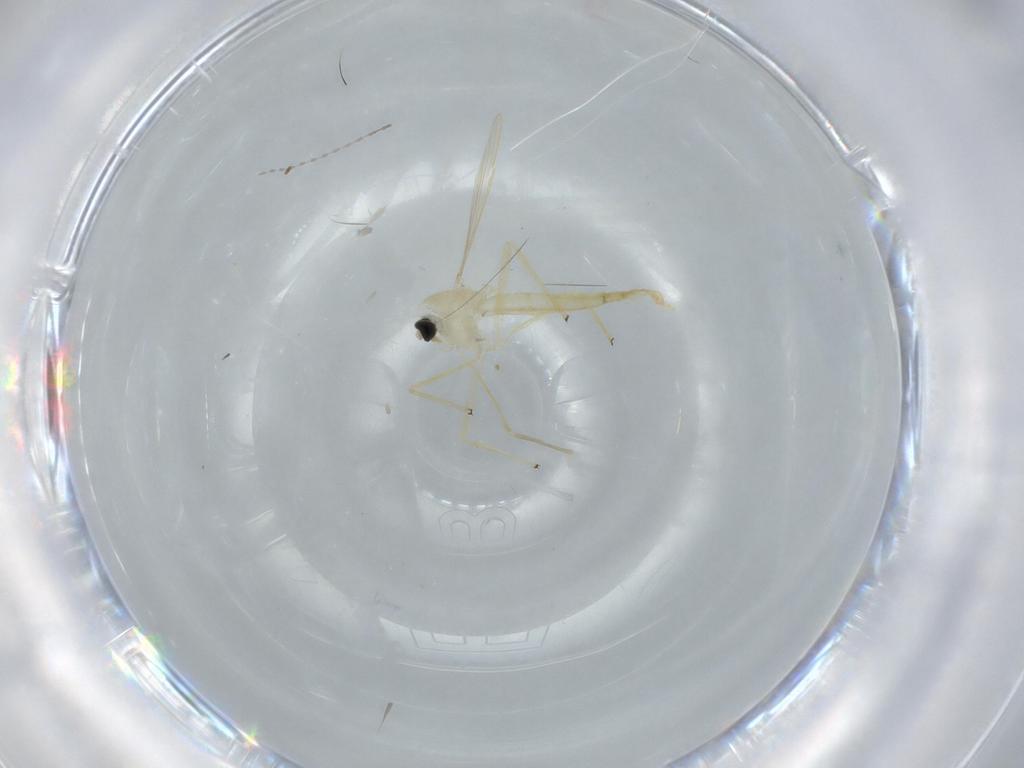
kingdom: Animalia
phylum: Arthropoda
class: Insecta
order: Diptera
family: Chironomidae
